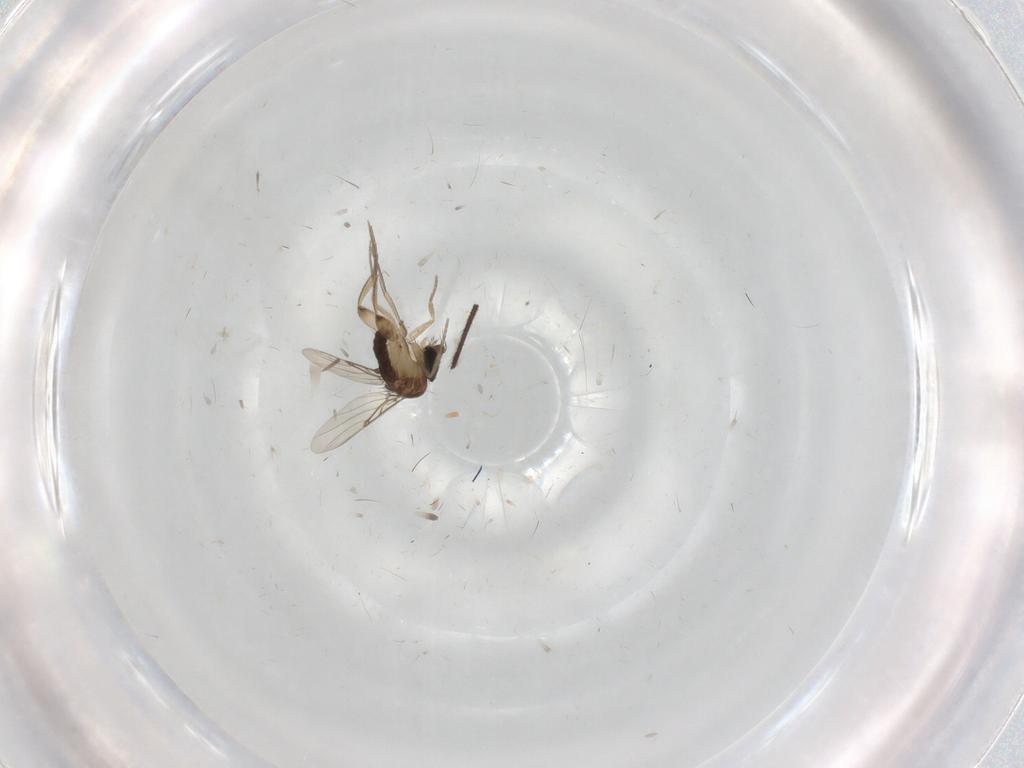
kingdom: Animalia
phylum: Arthropoda
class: Insecta
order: Diptera
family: Phoridae
